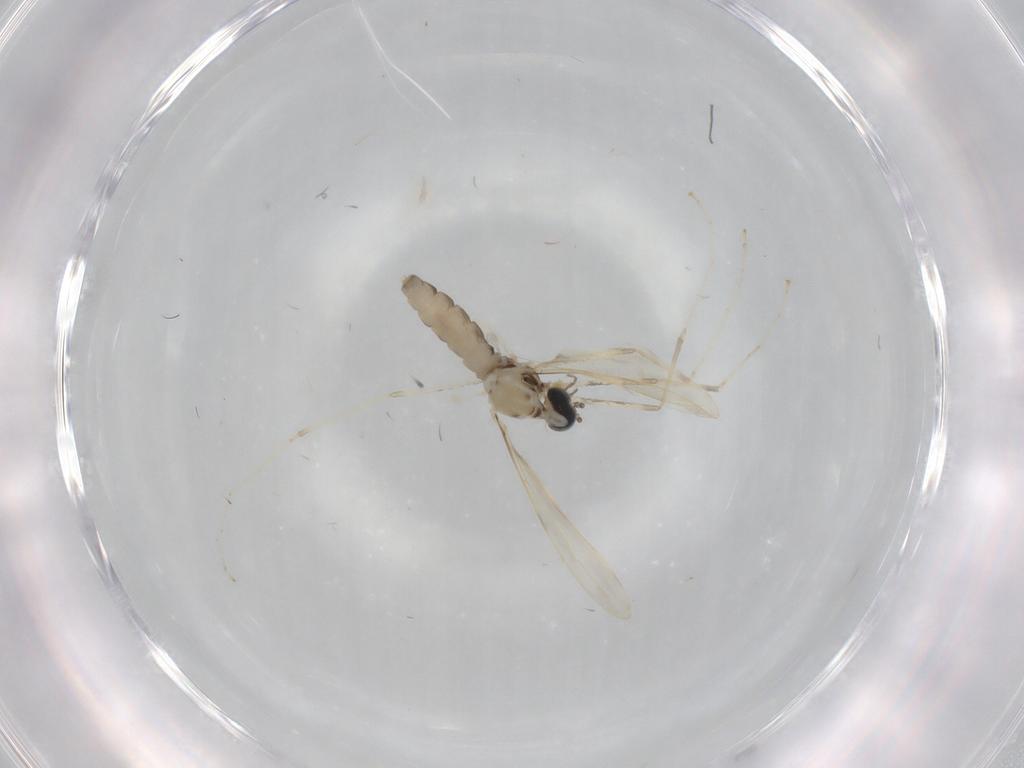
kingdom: Animalia
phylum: Arthropoda
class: Insecta
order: Diptera
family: Cecidomyiidae
